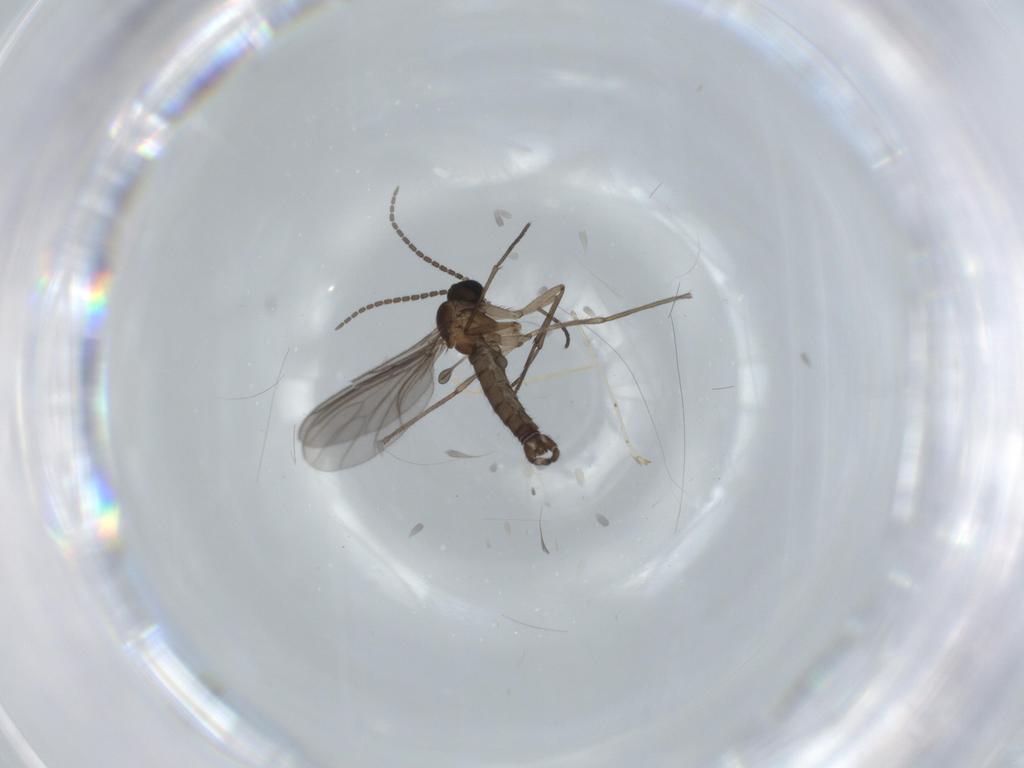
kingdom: Animalia
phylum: Arthropoda
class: Insecta
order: Diptera
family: Sciaridae
